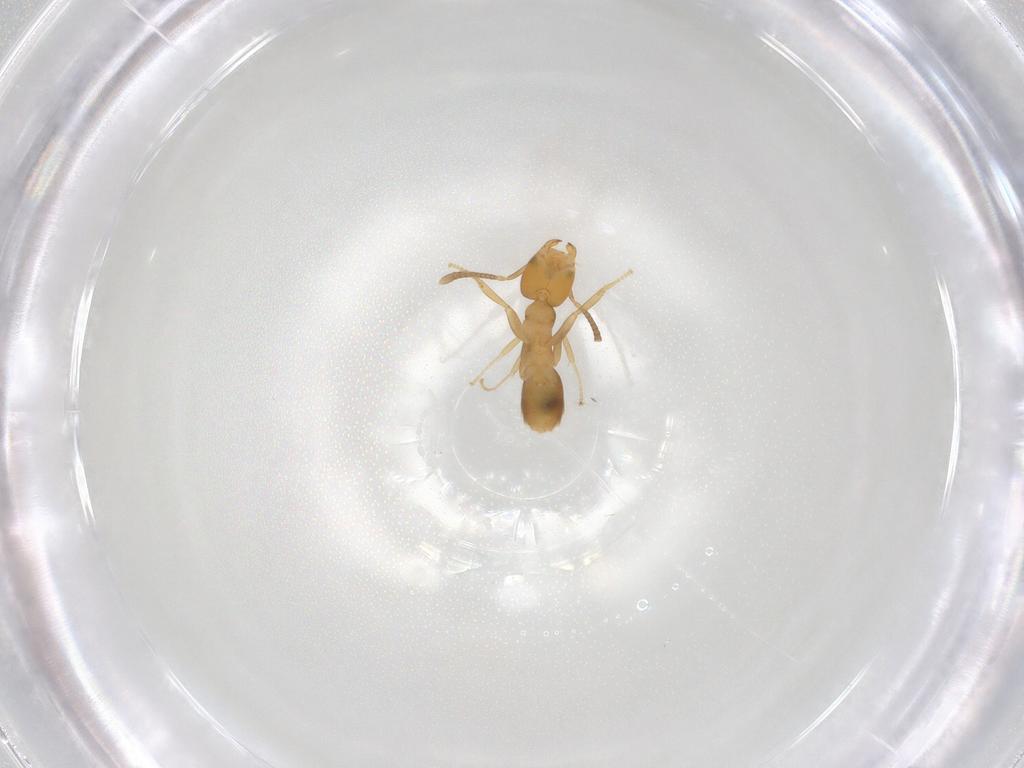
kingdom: Animalia
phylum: Arthropoda
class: Insecta
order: Hymenoptera
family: Formicidae
